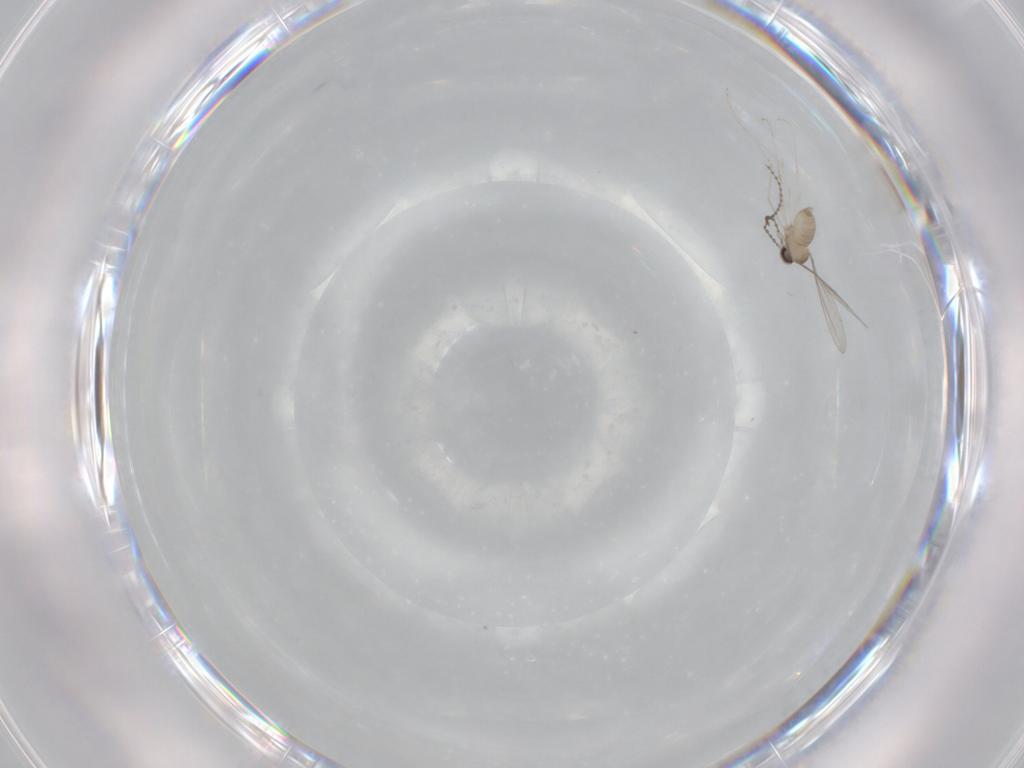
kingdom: Animalia
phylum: Arthropoda
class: Insecta
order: Diptera
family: Cecidomyiidae
